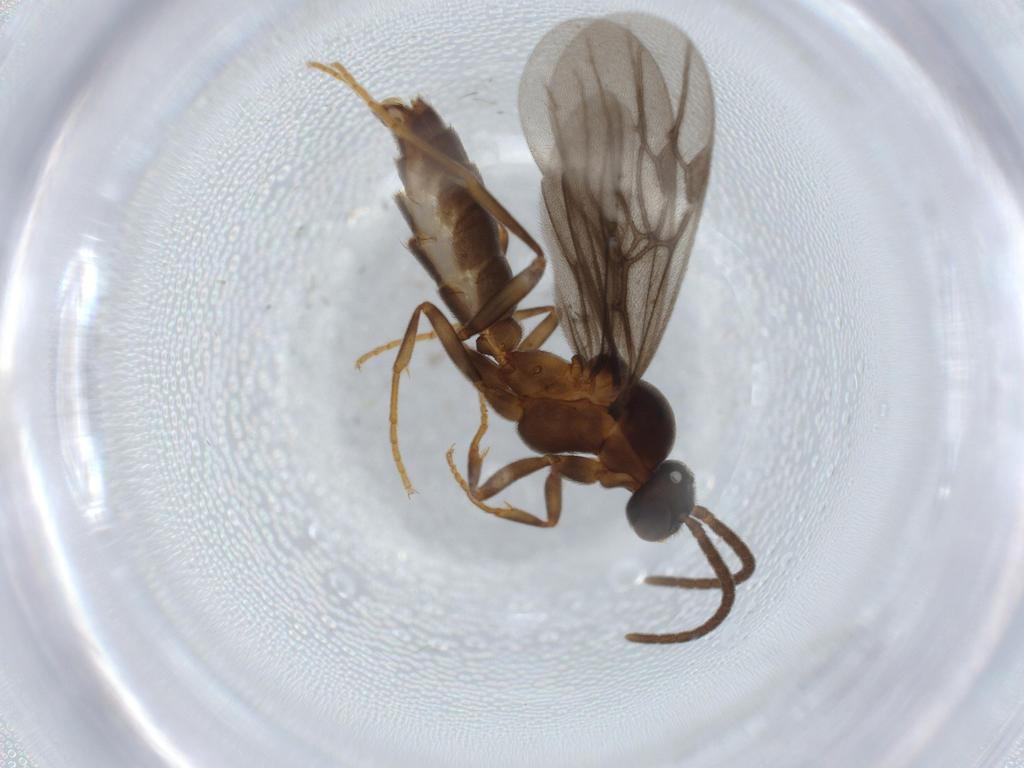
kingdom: Animalia
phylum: Arthropoda
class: Insecta
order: Hymenoptera
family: Formicidae
